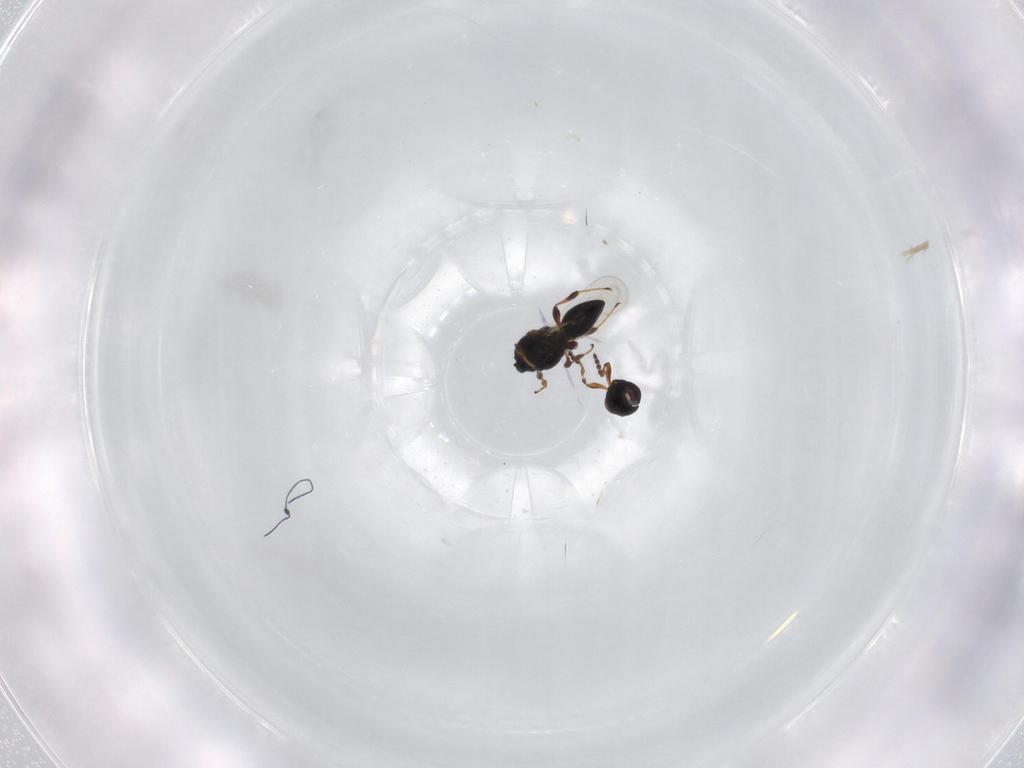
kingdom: Animalia
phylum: Arthropoda
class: Insecta
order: Hymenoptera
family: Platygastridae
